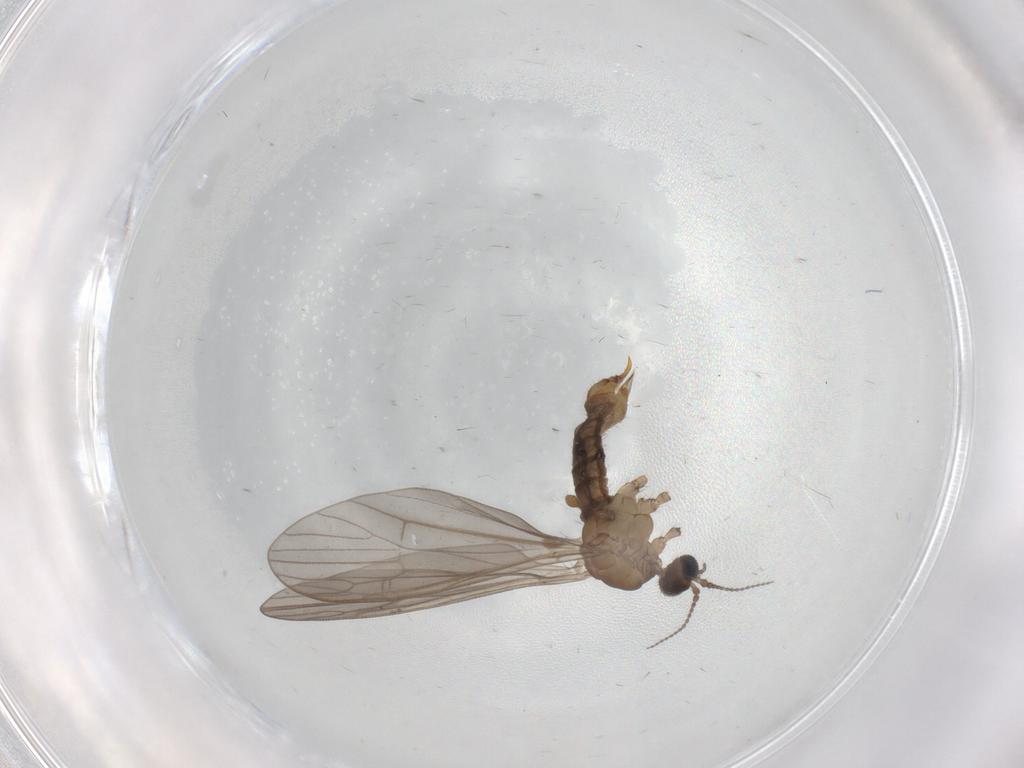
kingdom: Animalia
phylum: Arthropoda
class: Insecta
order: Diptera
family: Limoniidae
